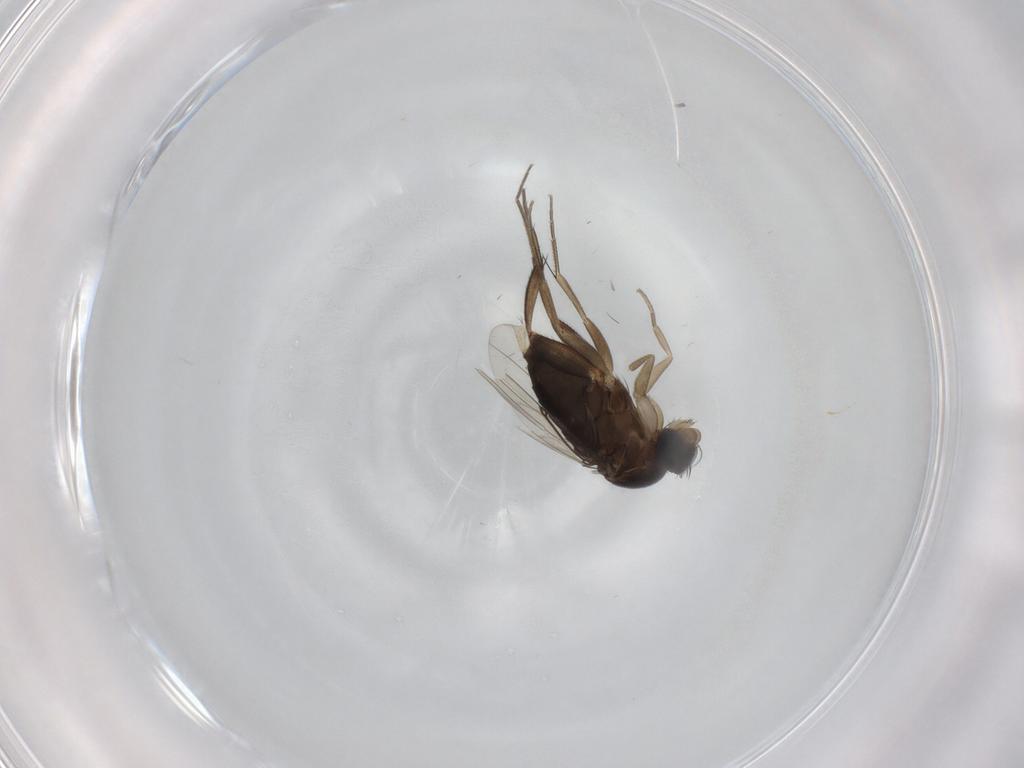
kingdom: Animalia
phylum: Arthropoda
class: Insecta
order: Diptera
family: Phoridae
